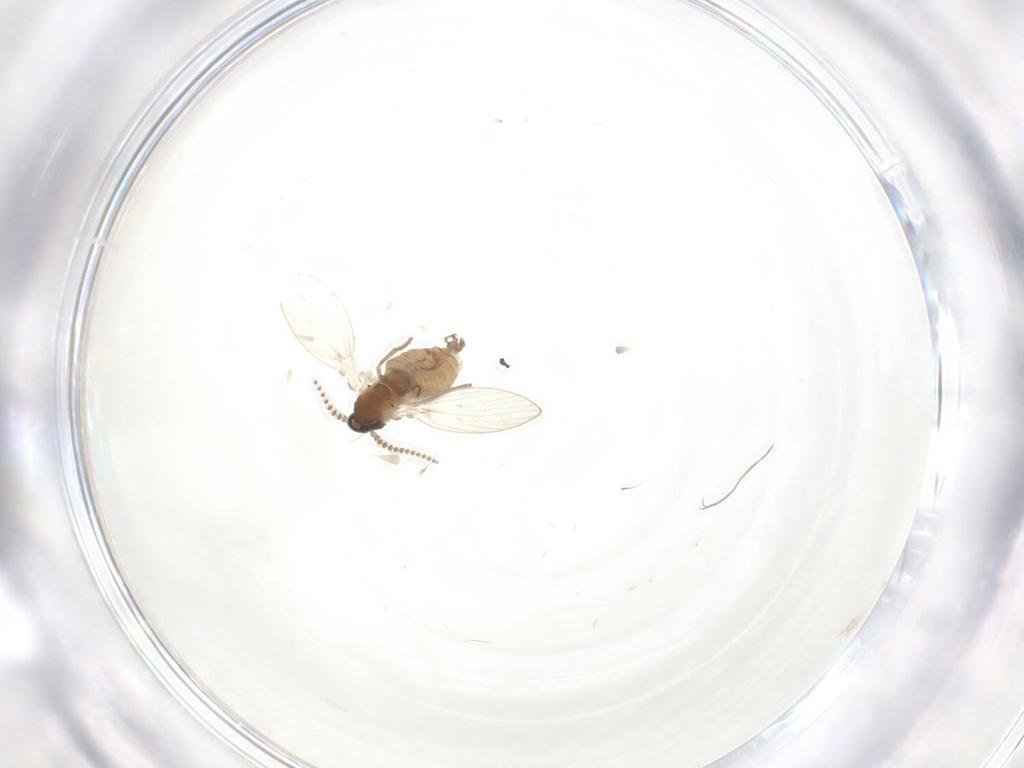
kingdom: Animalia
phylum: Arthropoda
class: Insecta
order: Diptera
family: Psychodidae
